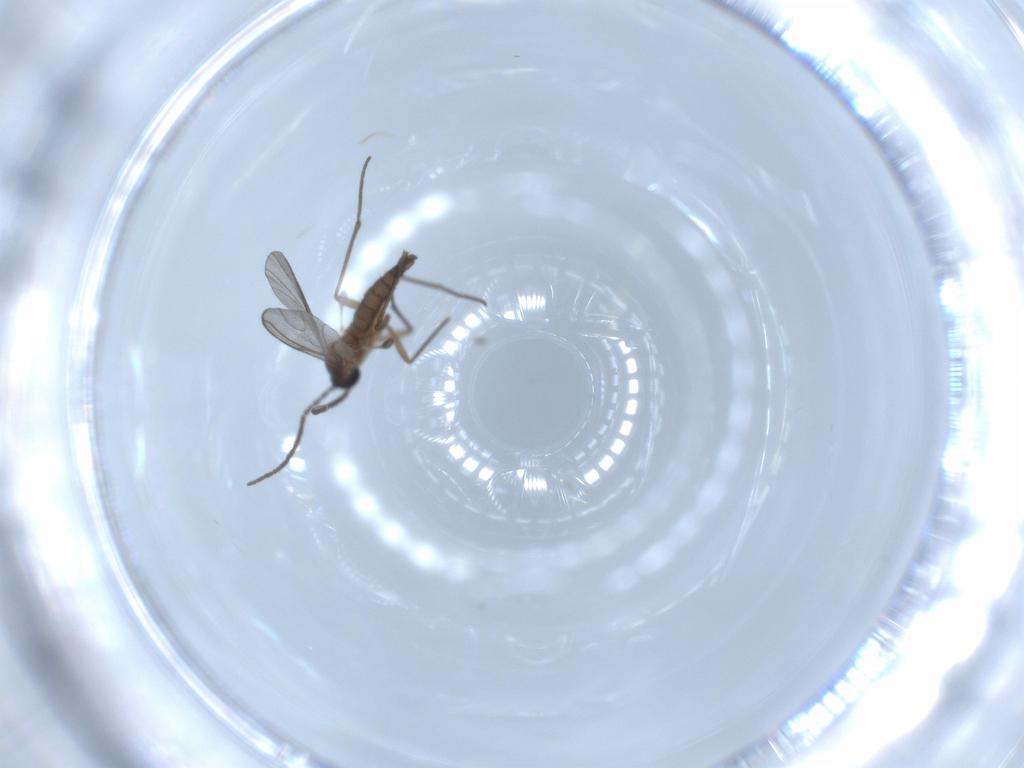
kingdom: Animalia
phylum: Arthropoda
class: Insecta
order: Diptera
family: Sciaridae
